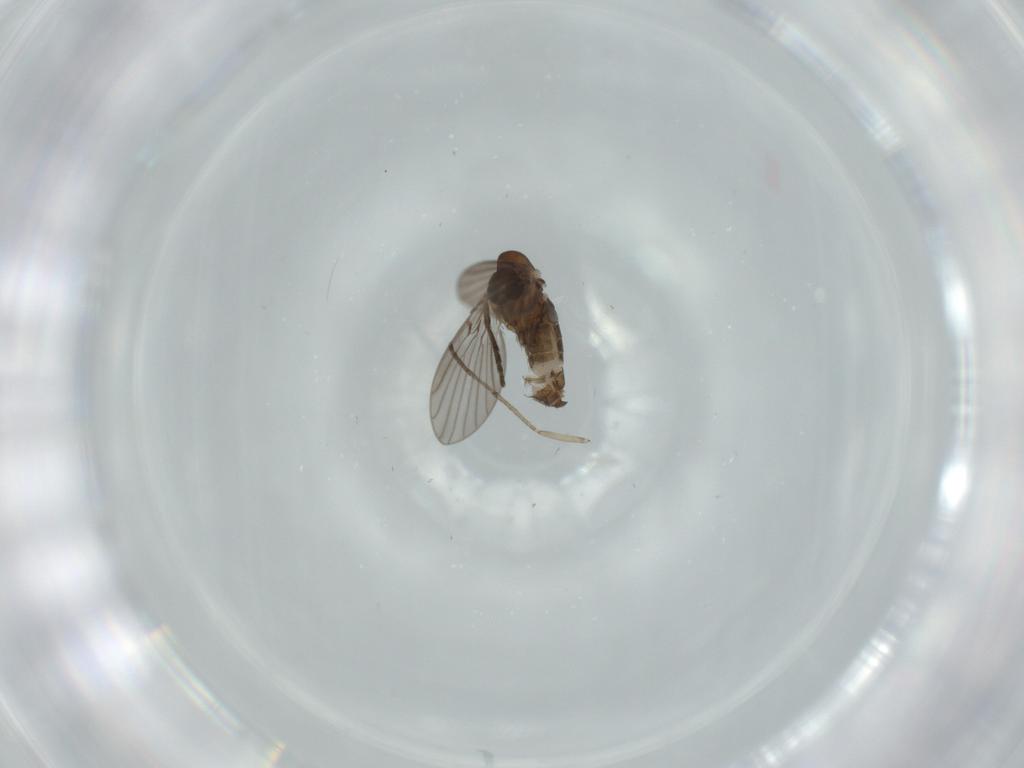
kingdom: Animalia
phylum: Arthropoda
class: Insecta
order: Diptera
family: Psychodidae
